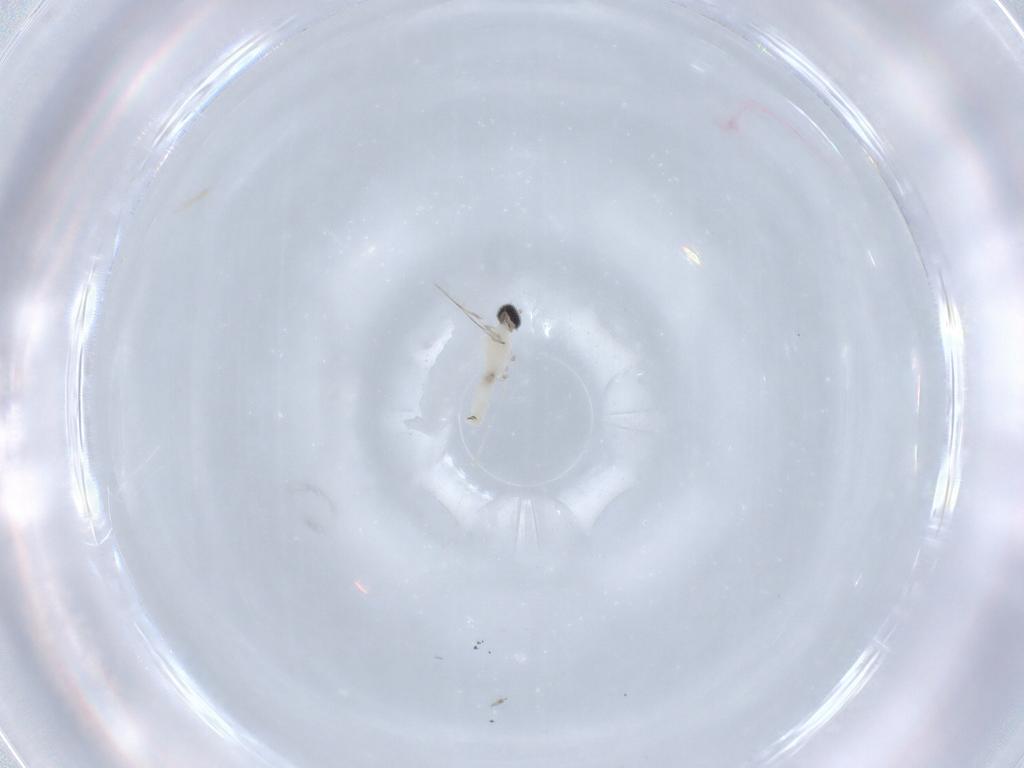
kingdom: Animalia
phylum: Arthropoda
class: Insecta
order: Diptera
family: Cecidomyiidae
